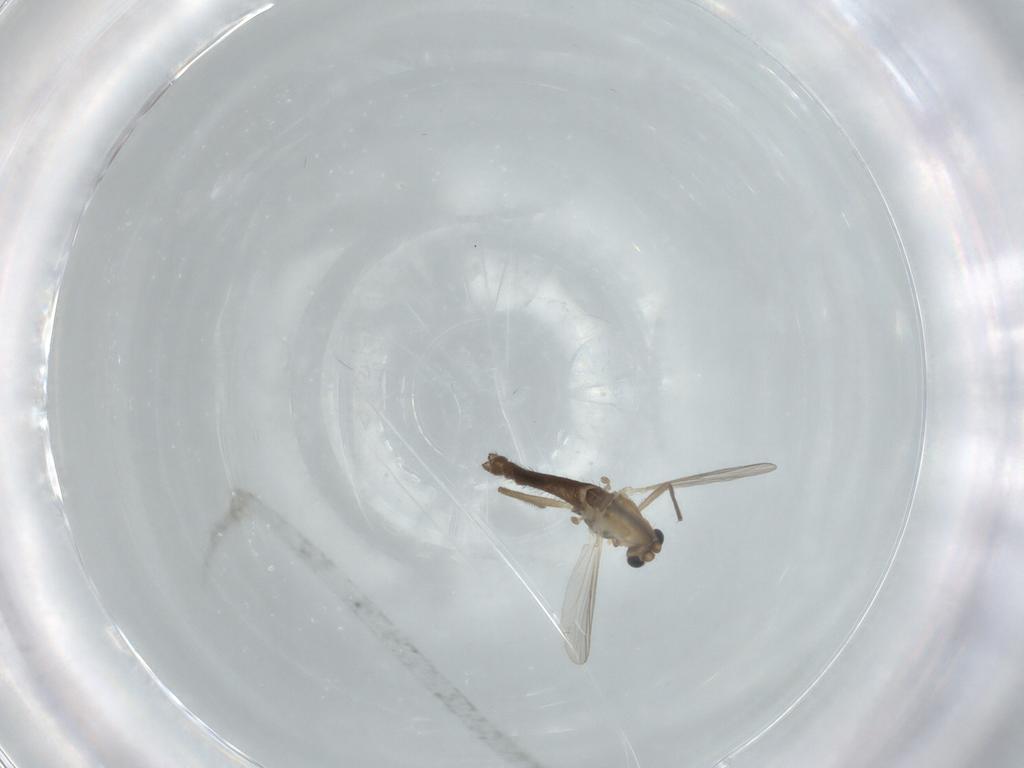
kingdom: Animalia
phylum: Arthropoda
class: Insecta
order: Diptera
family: Chironomidae
